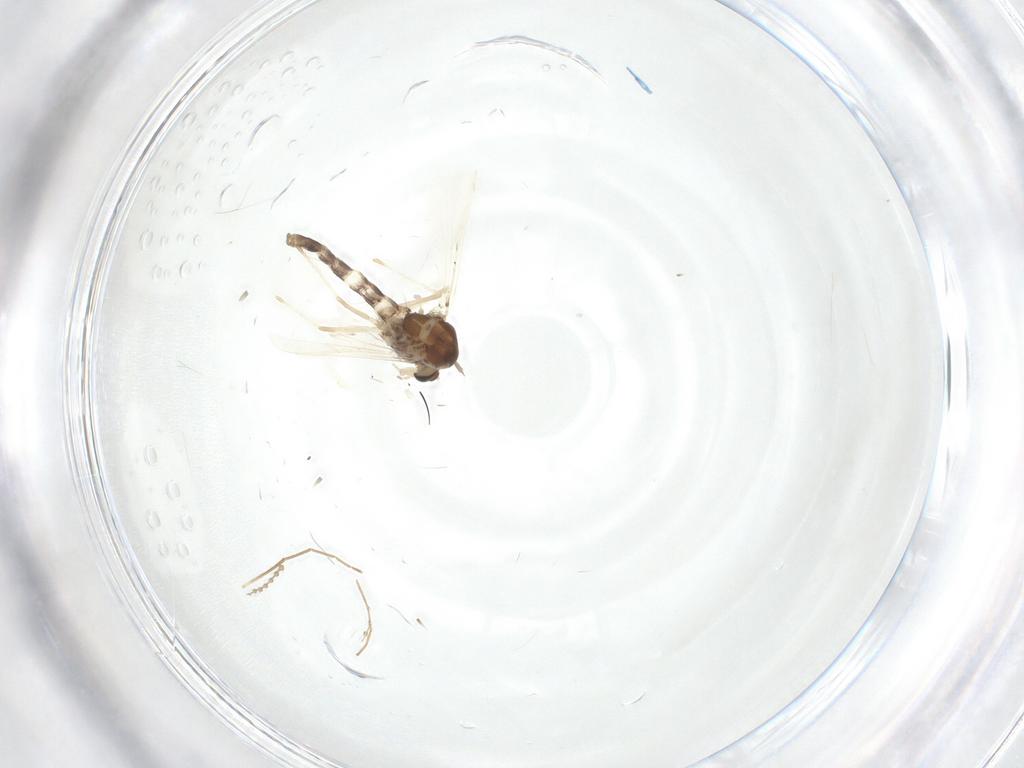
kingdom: Animalia
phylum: Arthropoda
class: Insecta
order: Diptera
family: Chironomidae
